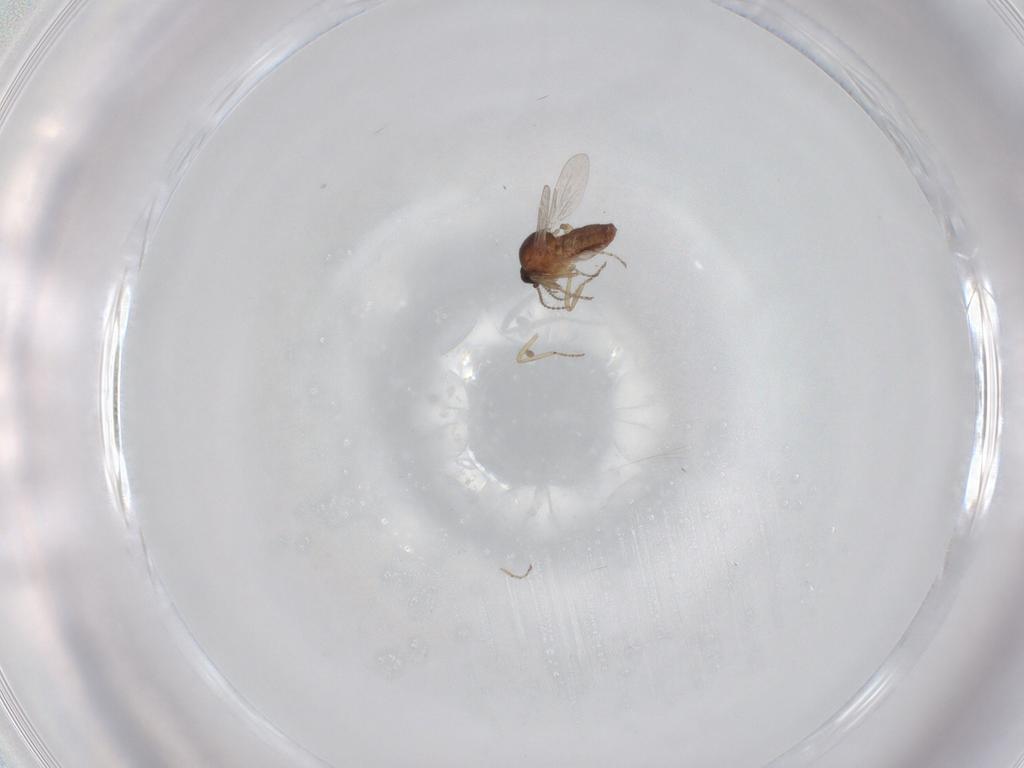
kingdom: Animalia
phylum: Arthropoda
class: Insecta
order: Diptera
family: Ceratopogonidae
